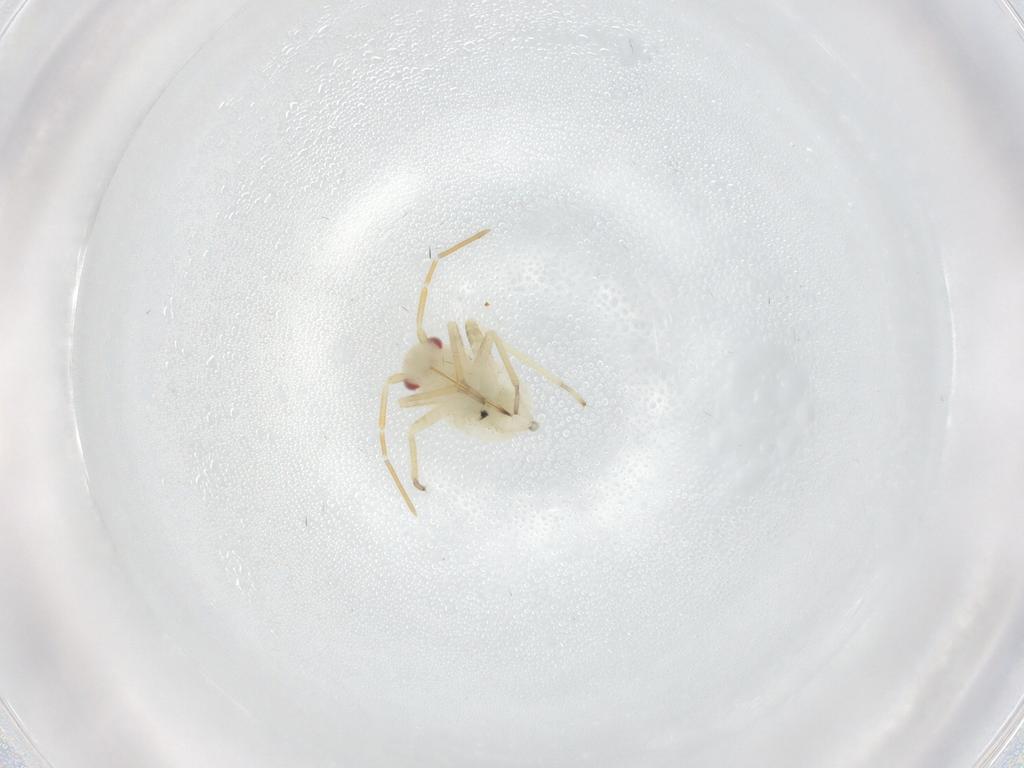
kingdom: Animalia
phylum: Arthropoda
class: Insecta
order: Hemiptera
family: Miridae
